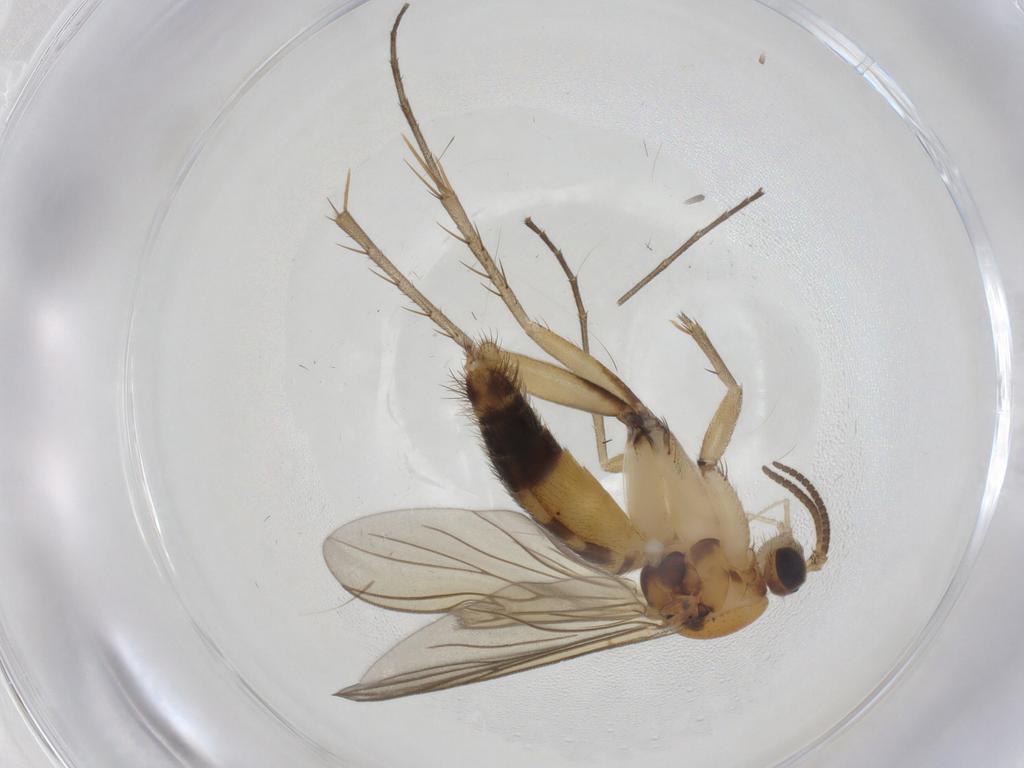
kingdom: Animalia
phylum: Arthropoda
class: Insecta
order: Diptera
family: Mycetophilidae
